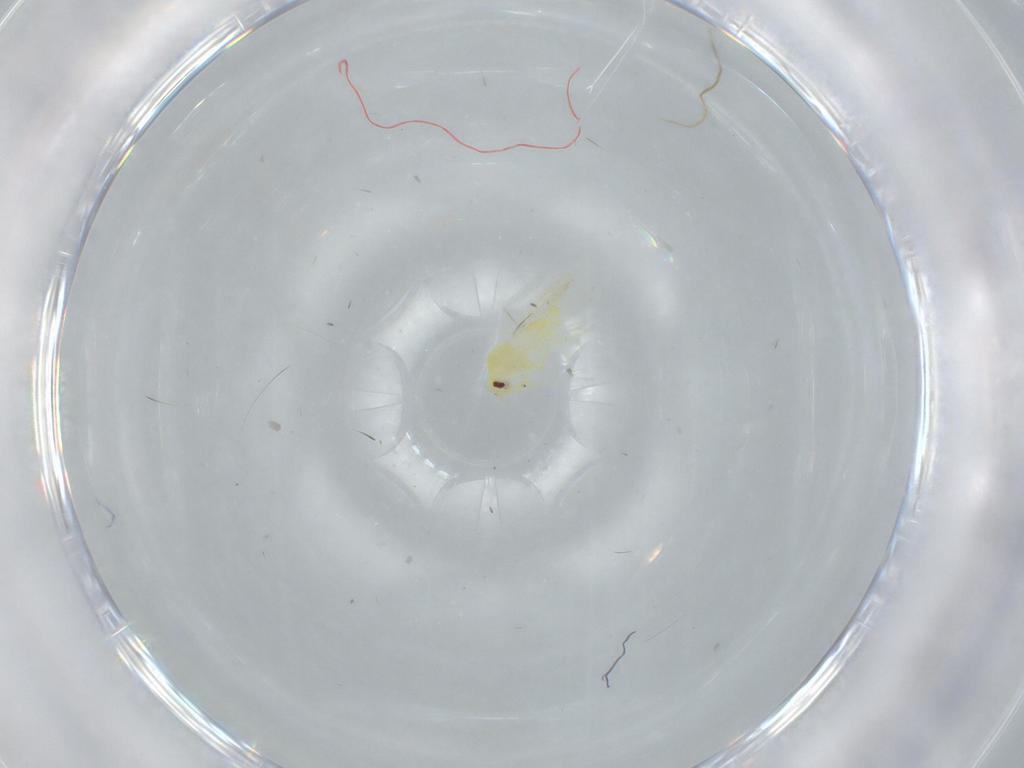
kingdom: Animalia
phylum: Arthropoda
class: Insecta
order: Hemiptera
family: Aleyrodidae
